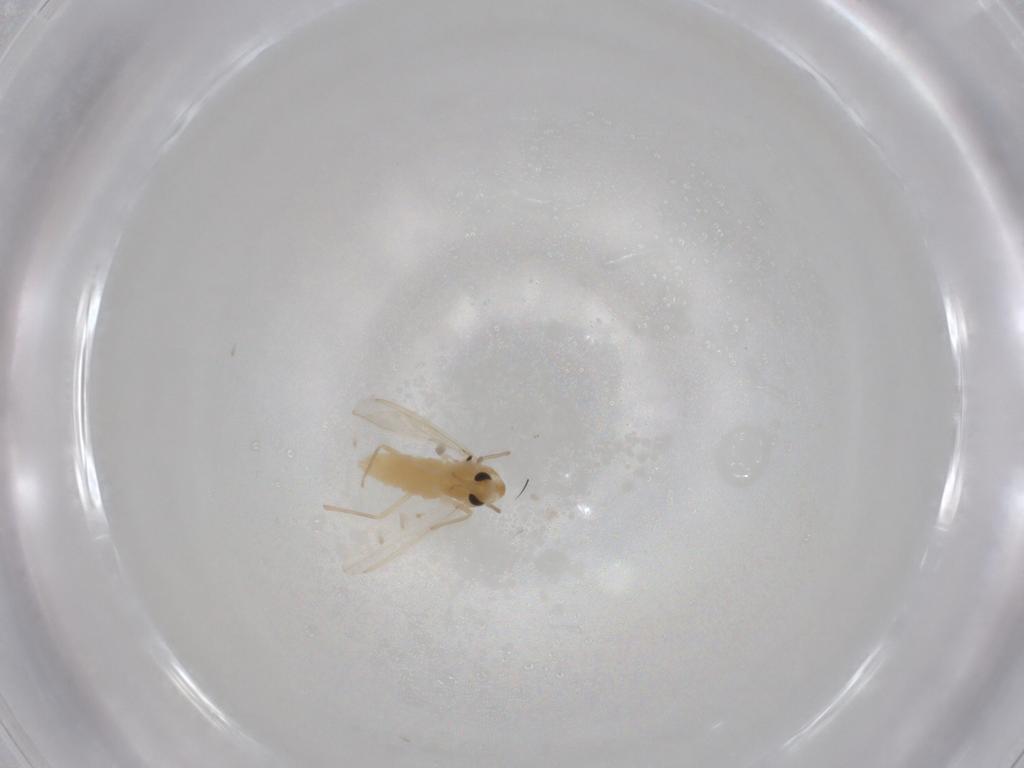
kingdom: Animalia
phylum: Arthropoda
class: Insecta
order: Diptera
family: Chironomidae
